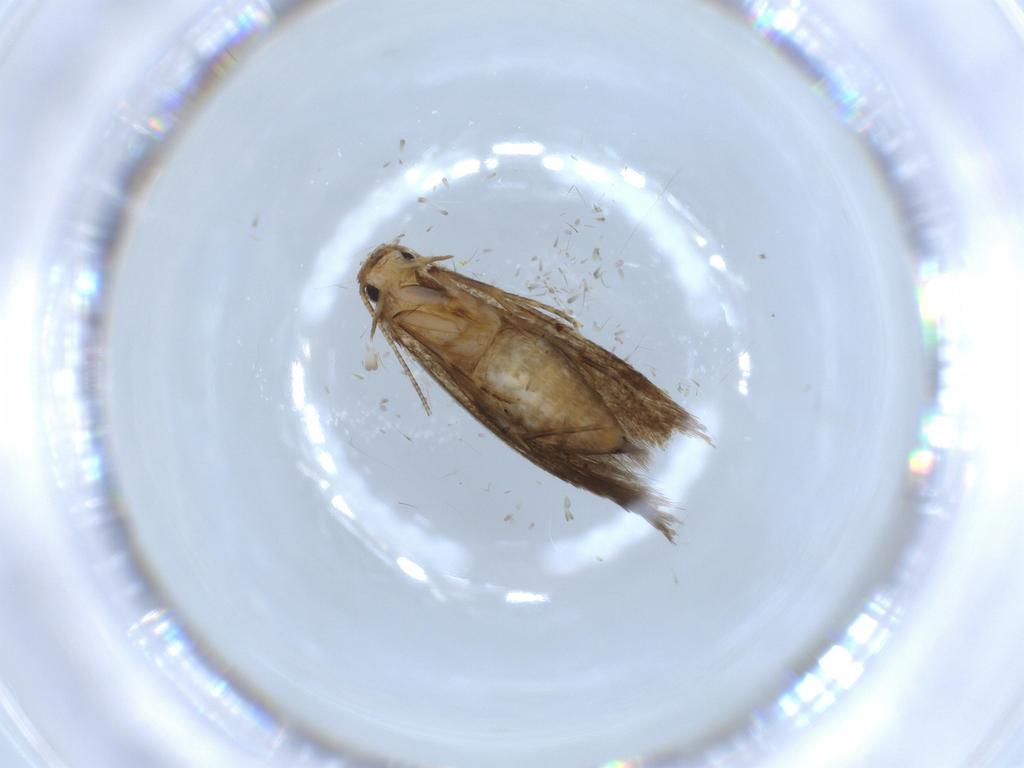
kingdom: Animalia
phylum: Arthropoda
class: Insecta
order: Lepidoptera
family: Tineidae
